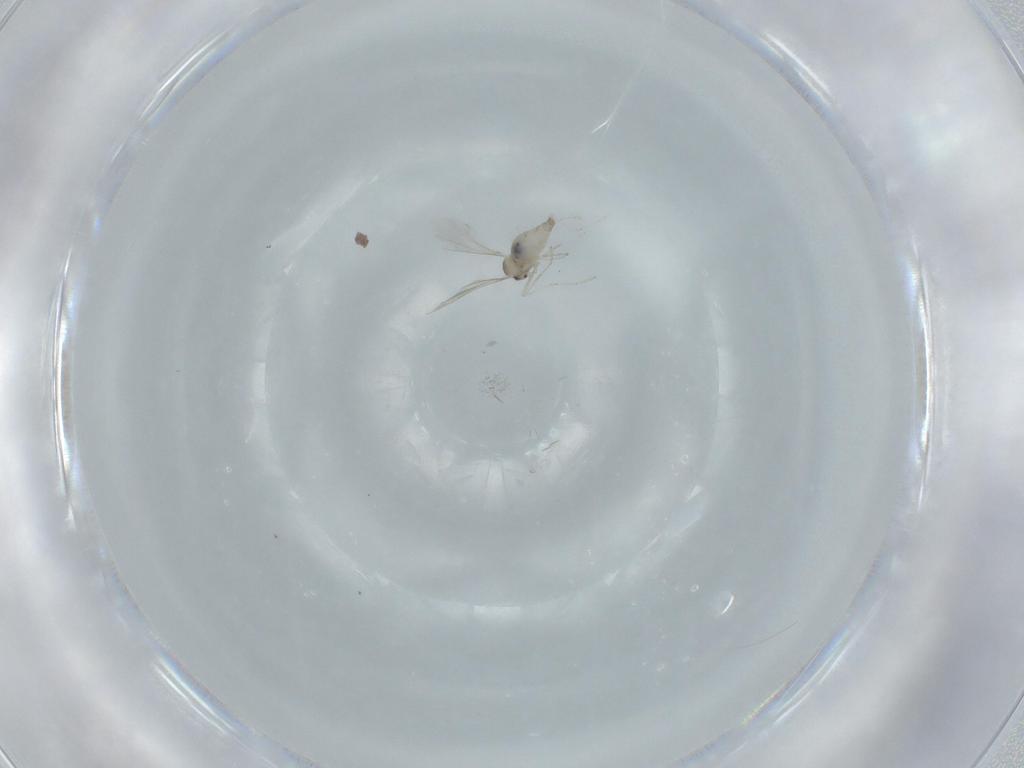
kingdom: Animalia
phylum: Arthropoda
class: Insecta
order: Diptera
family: Cecidomyiidae
